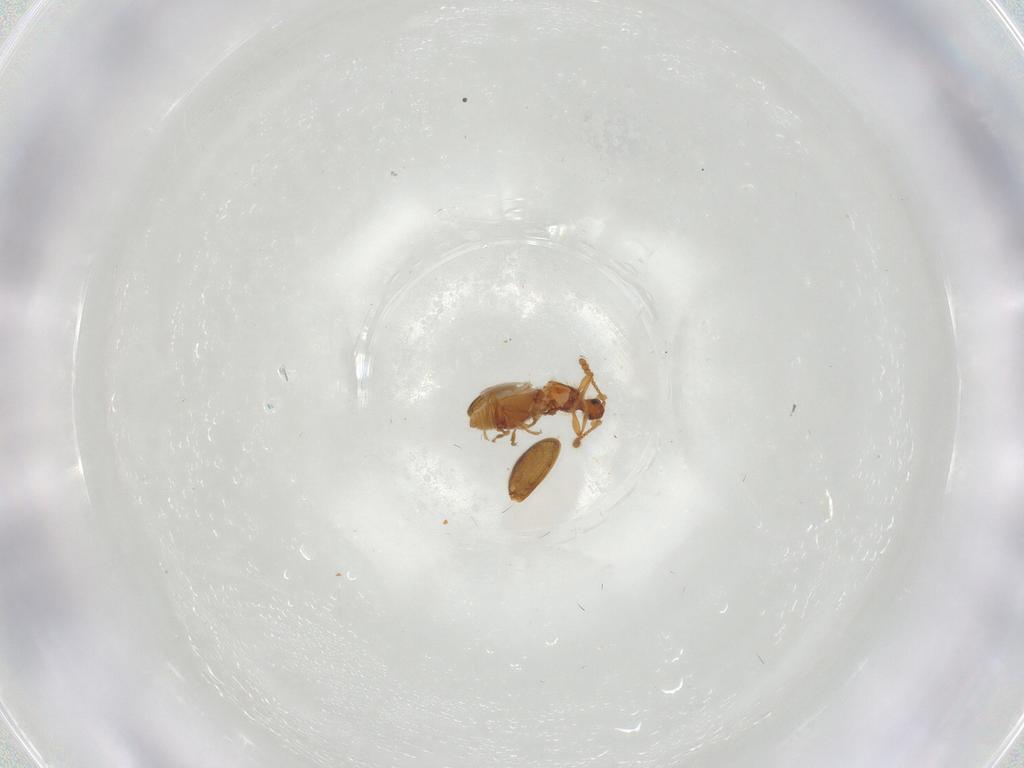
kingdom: Animalia
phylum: Arthropoda
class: Insecta
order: Coleoptera
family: Staphylinidae
